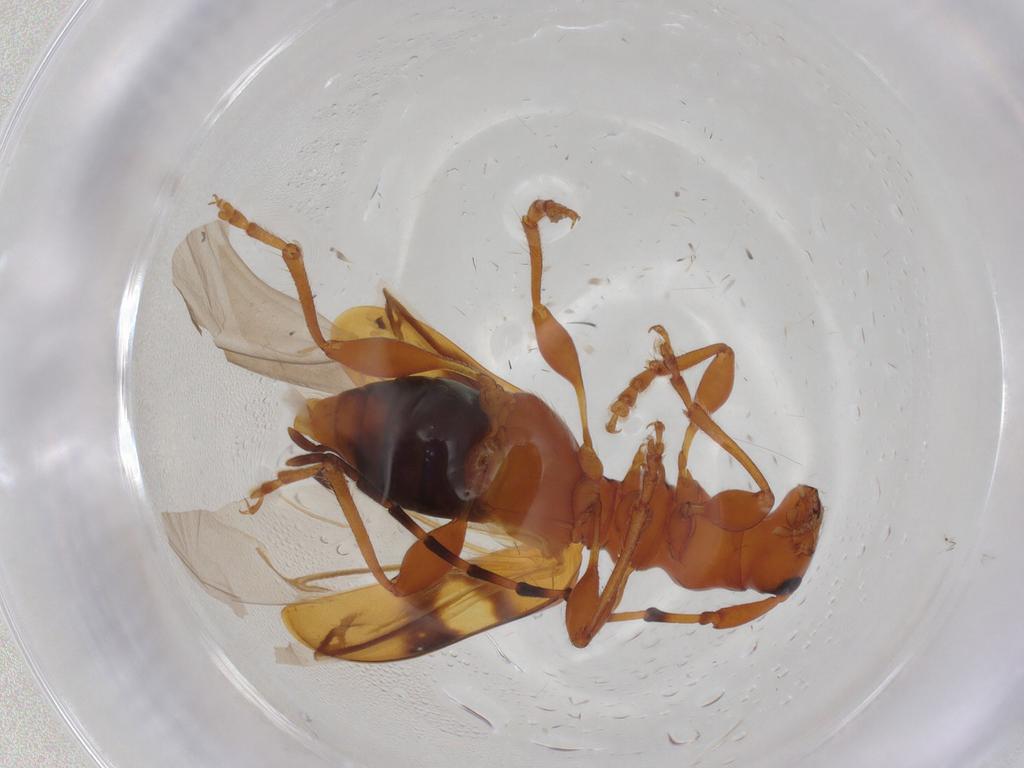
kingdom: Animalia
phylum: Arthropoda
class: Insecta
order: Coleoptera
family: Cerambycidae
